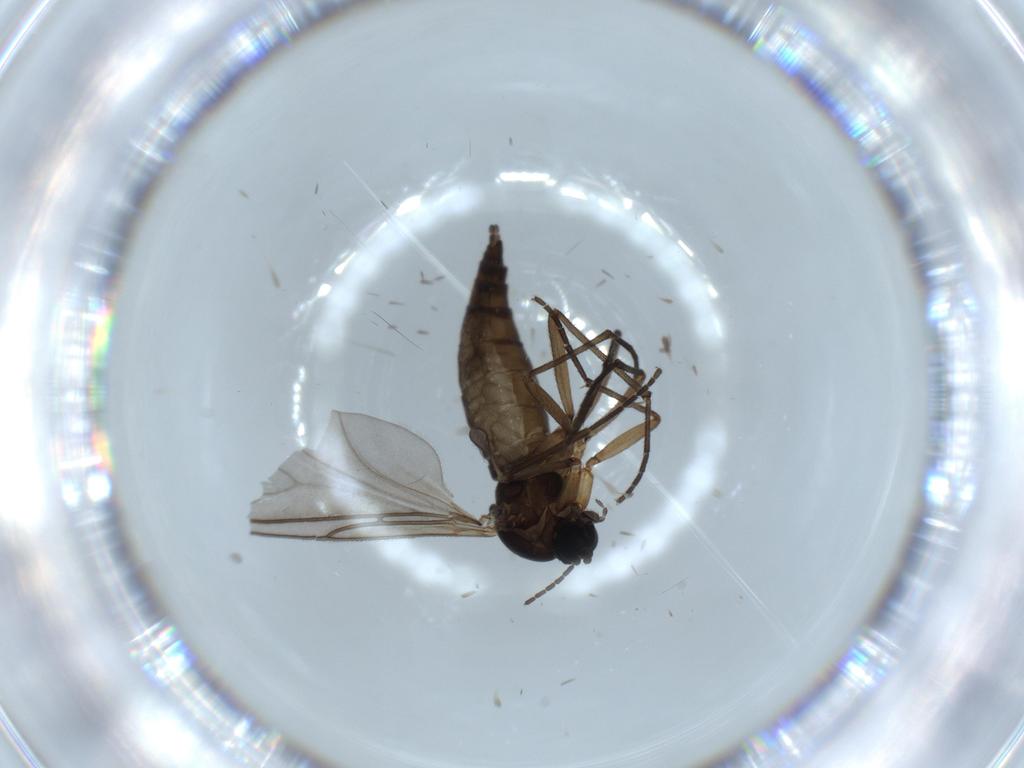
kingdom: Animalia
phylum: Arthropoda
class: Insecta
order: Diptera
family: Sciaridae
